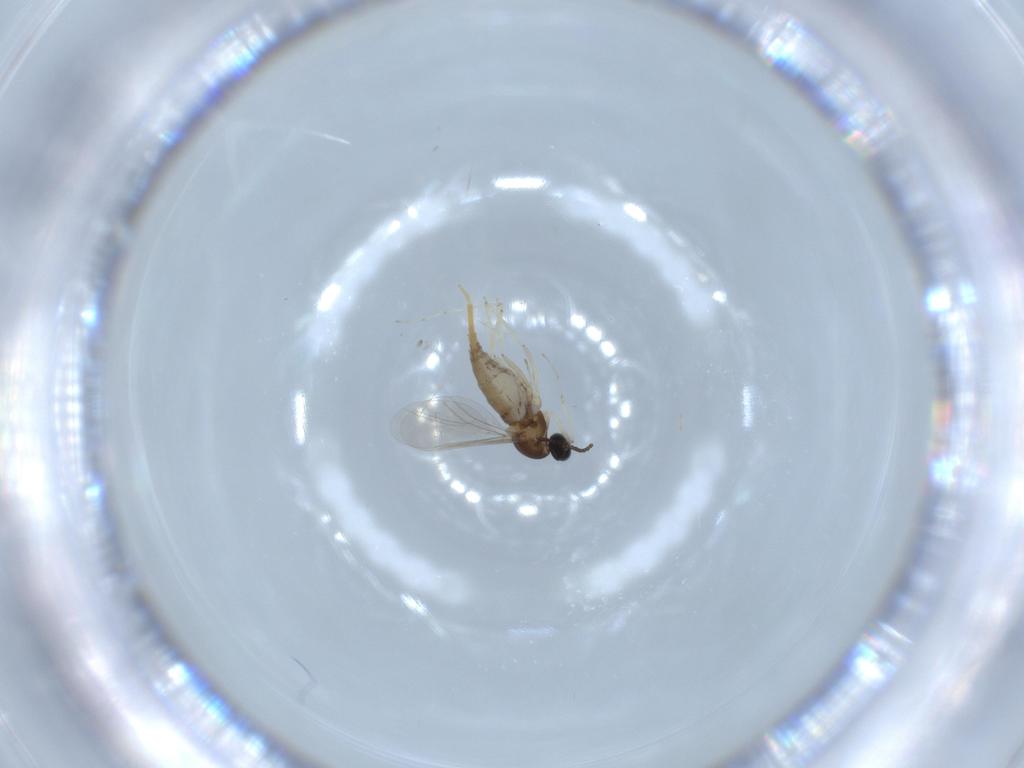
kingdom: Animalia
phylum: Arthropoda
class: Insecta
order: Diptera
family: Cecidomyiidae
